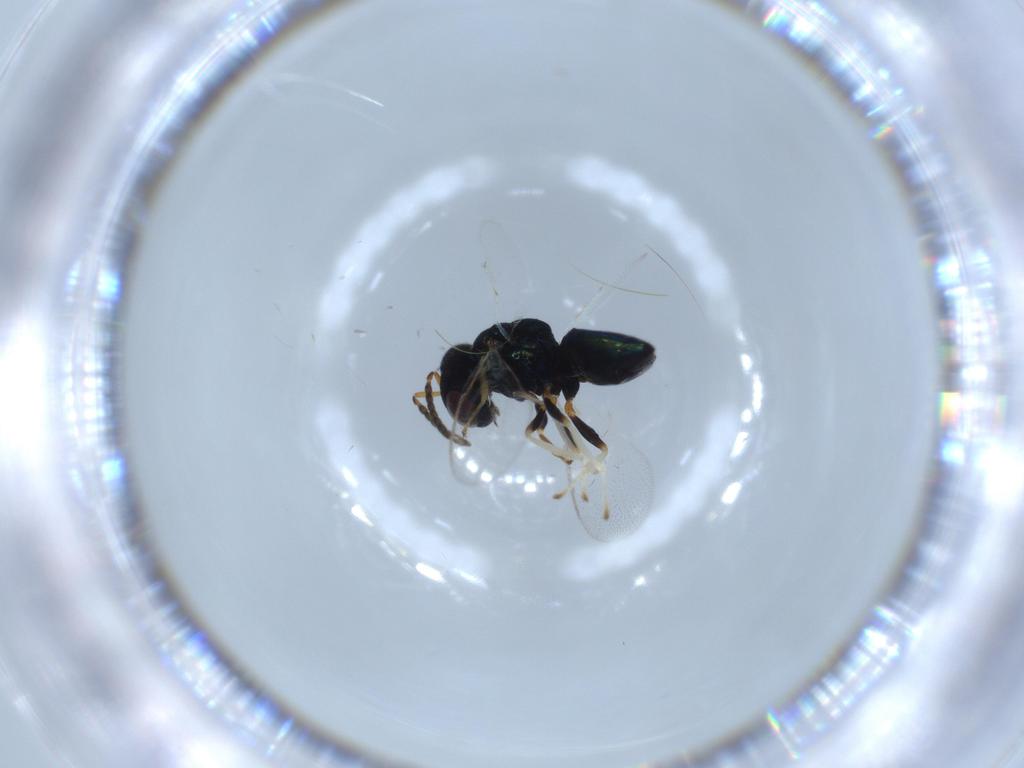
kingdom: Animalia
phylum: Arthropoda
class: Insecta
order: Hymenoptera
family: Pteromalidae
